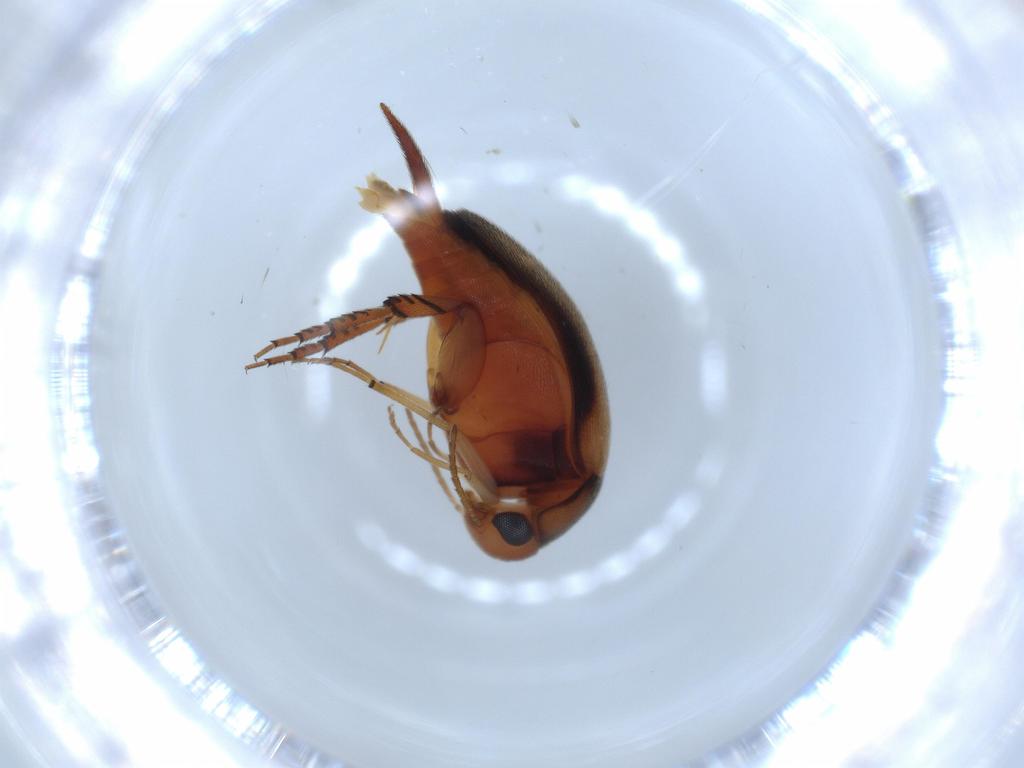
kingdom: Animalia
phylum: Arthropoda
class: Insecta
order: Coleoptera
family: Mordellidae
